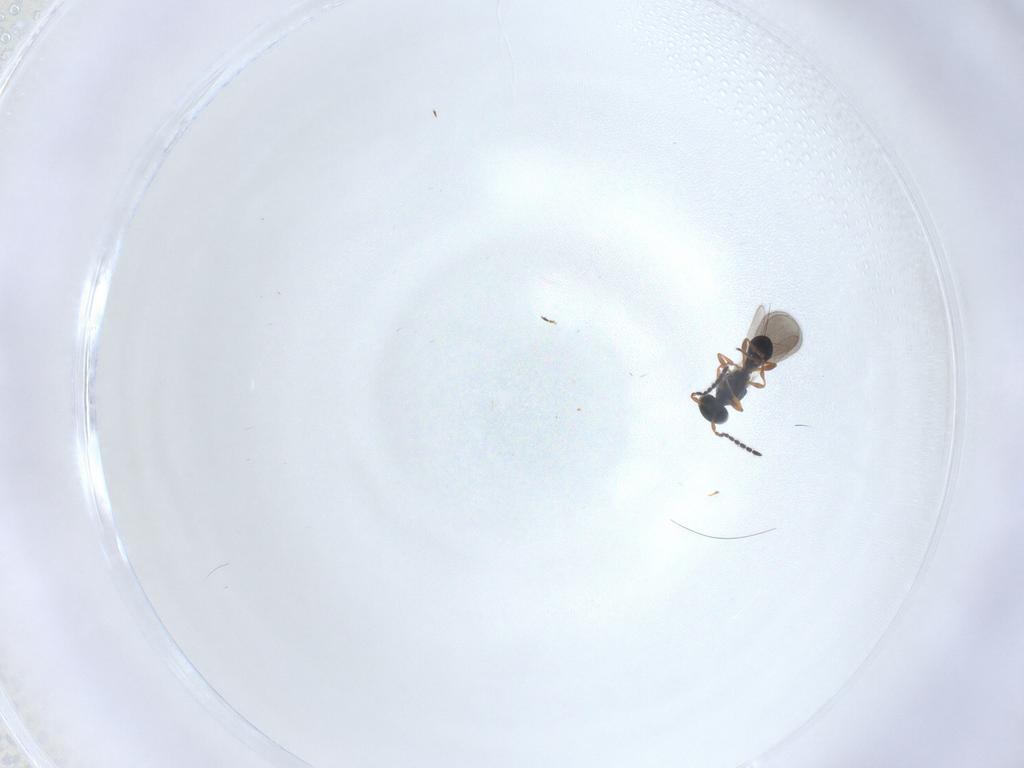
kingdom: Animalia
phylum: Arthropoda
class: Insecta
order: Hymenoptera
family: Platygastridae
